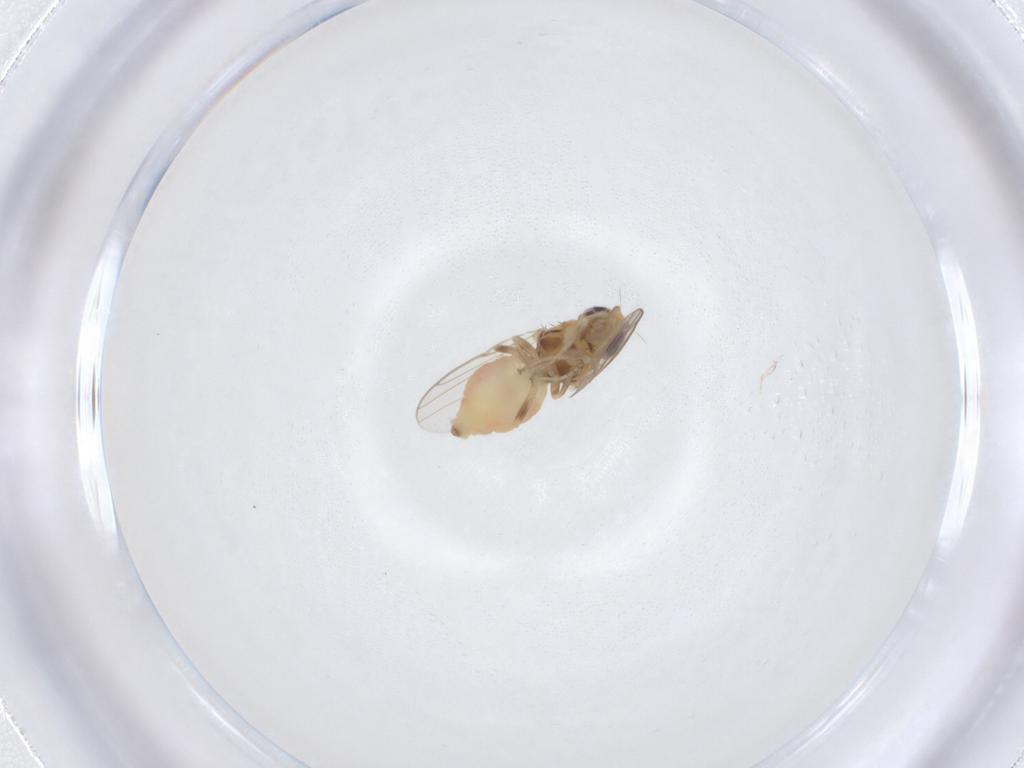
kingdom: Animalia
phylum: Arthropoda
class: Insecta
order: Diptera
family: Chloropidae
